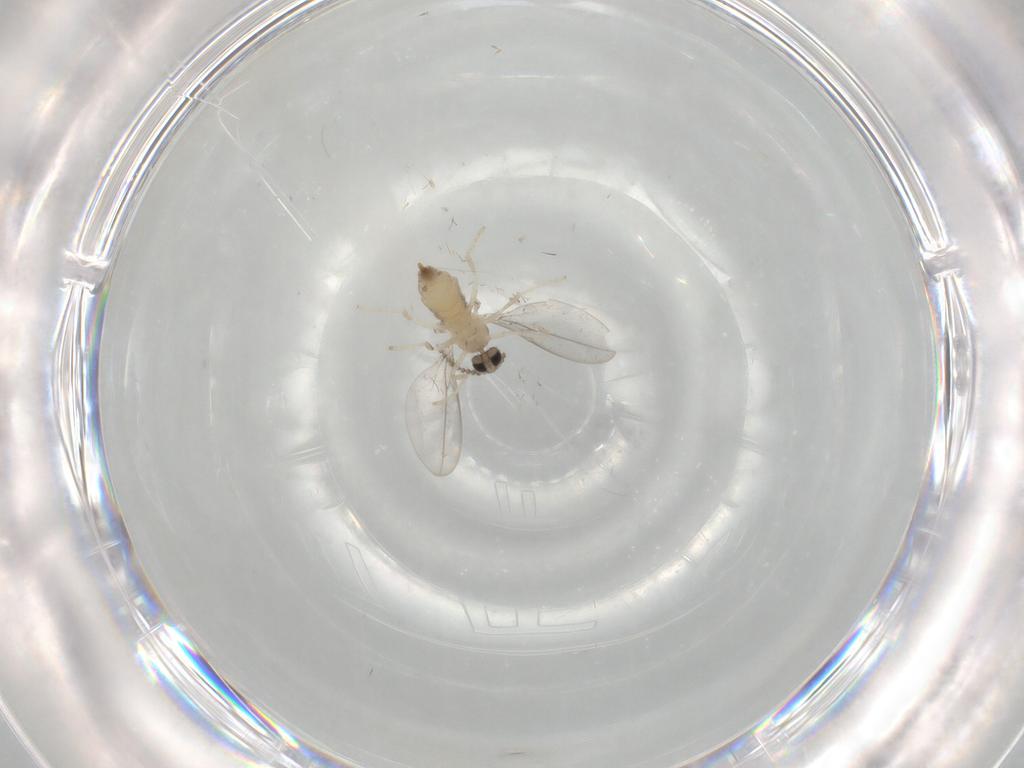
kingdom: Animalia
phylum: Arthropoda
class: Insecta
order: Diptera
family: Cecidomyiidae
